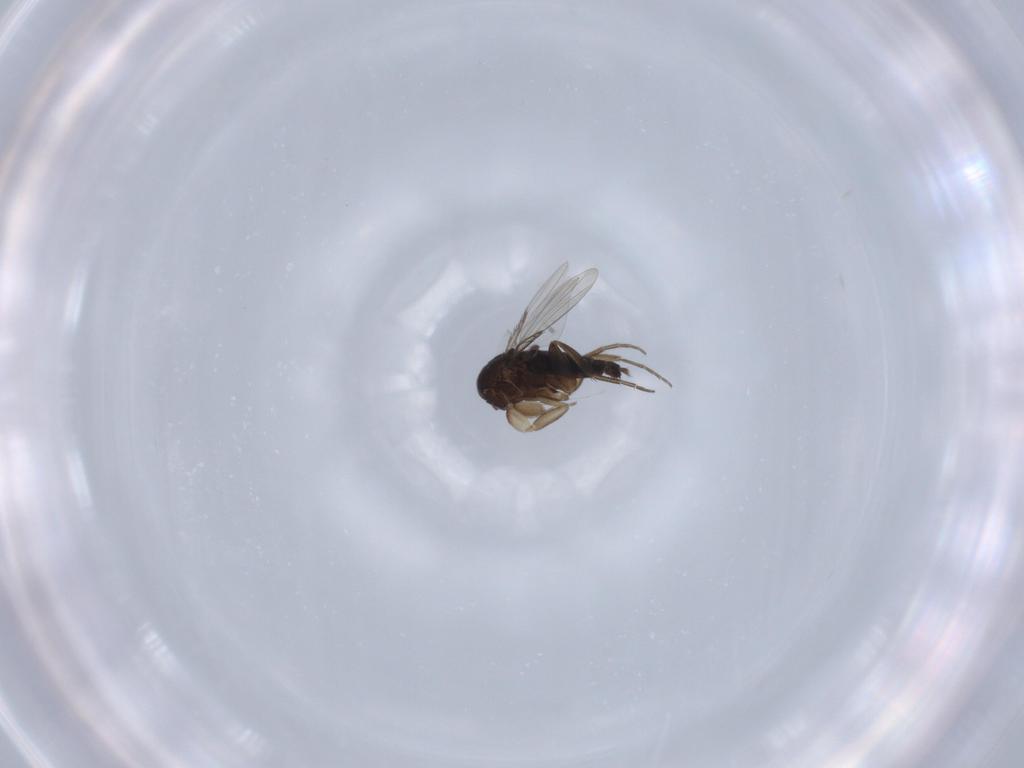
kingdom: Animalia
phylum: Arthropoda
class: Insecta
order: Diptera
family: Phoridae
